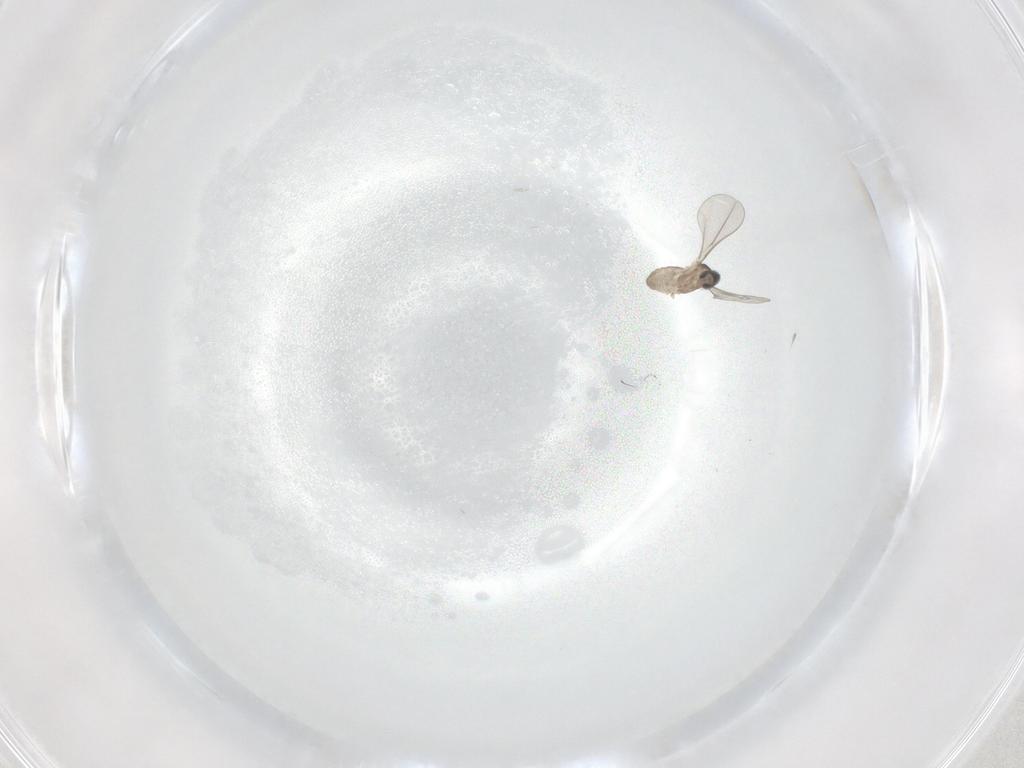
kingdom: Animalia
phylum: Arthropoda
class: Insecta
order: Diptera
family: Cecidomyiidae
